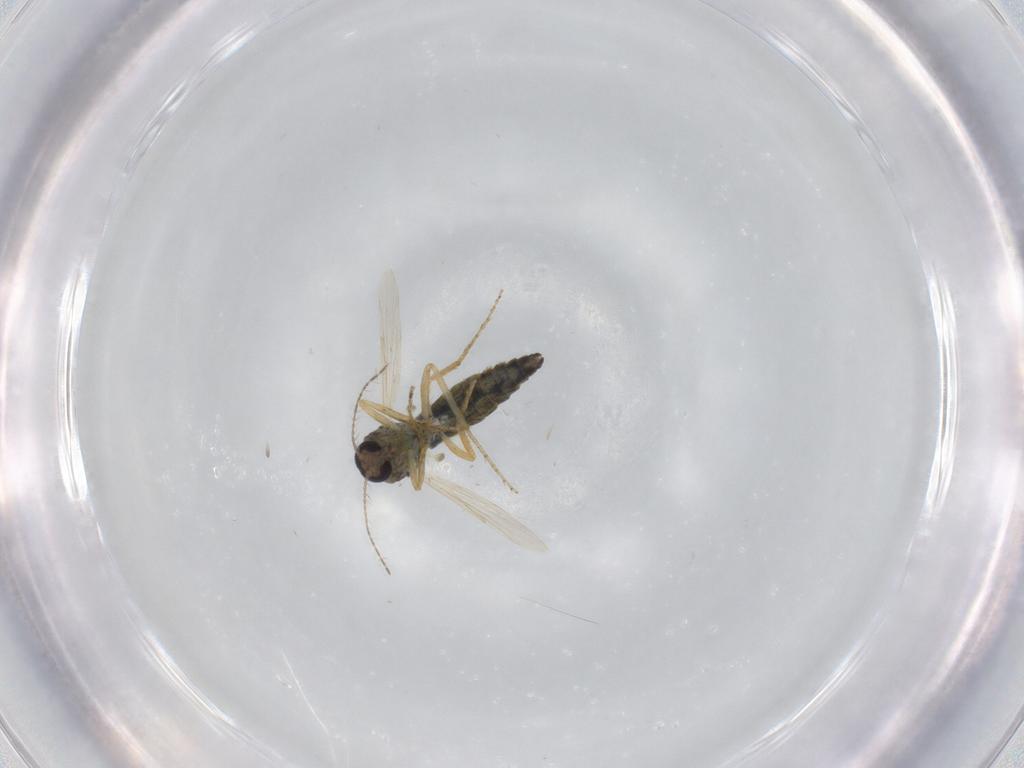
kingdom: Animalia
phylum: Arthropoda
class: Insecta
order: Diptera
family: Ceratopogonidae
